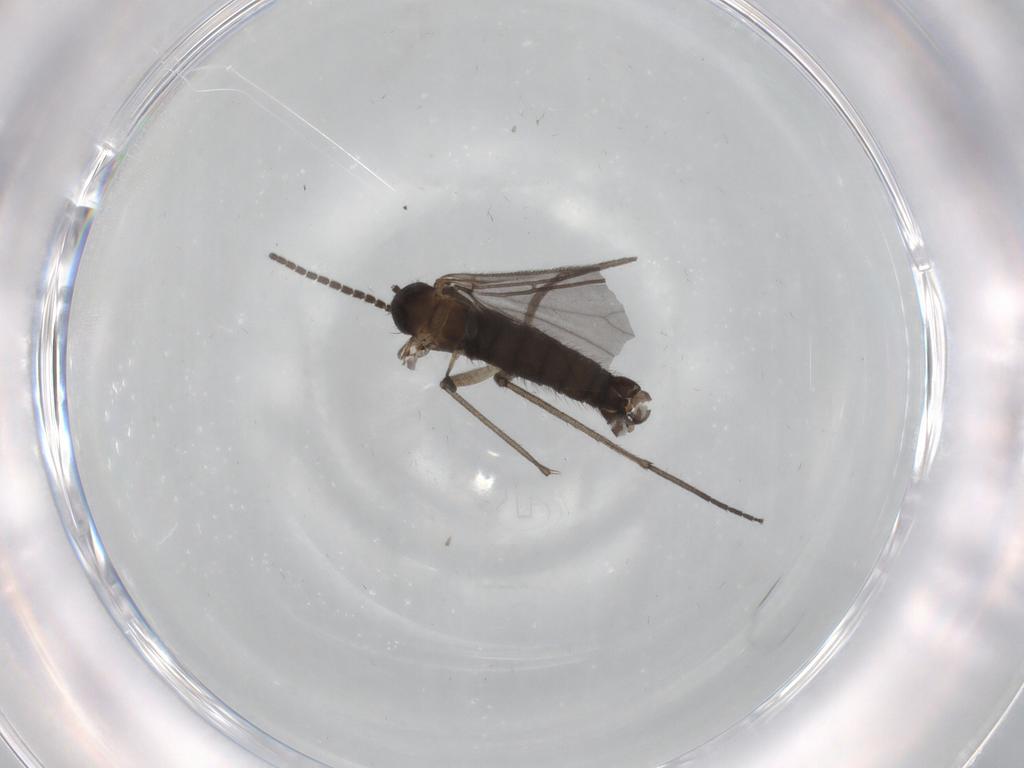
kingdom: Animalia
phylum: Arthropoda
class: Insecta
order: Diptera
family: Sciaridae
